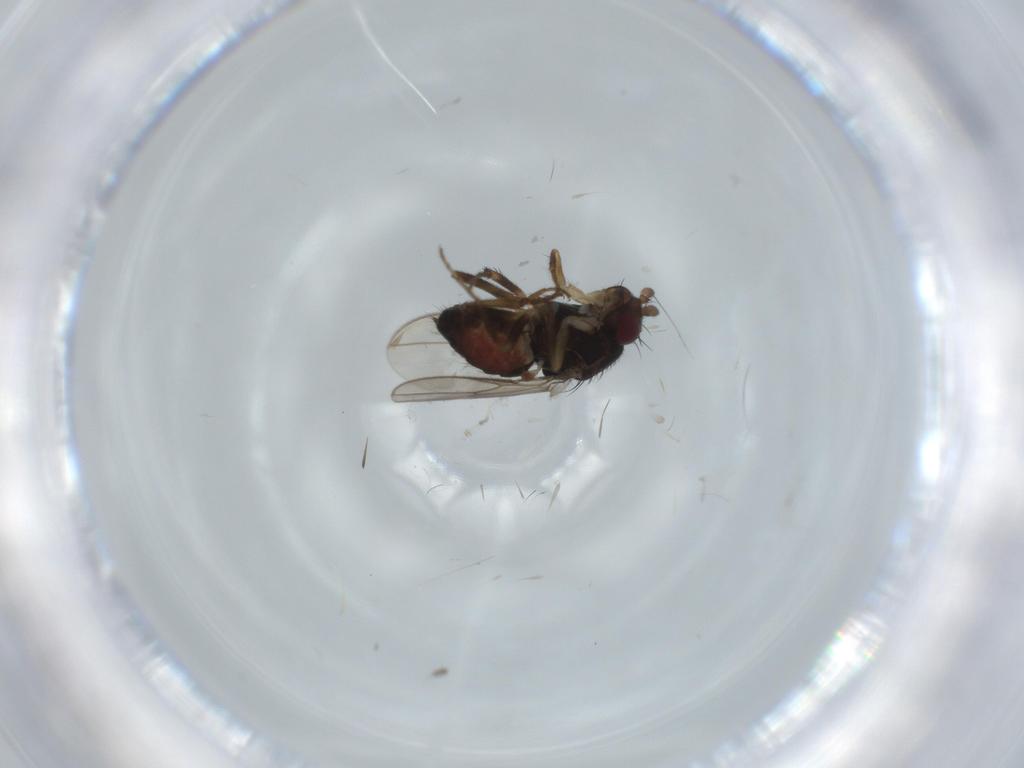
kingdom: Animalia
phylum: Arthropoda
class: Insecta
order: Diptera
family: Sphaeroceridae
